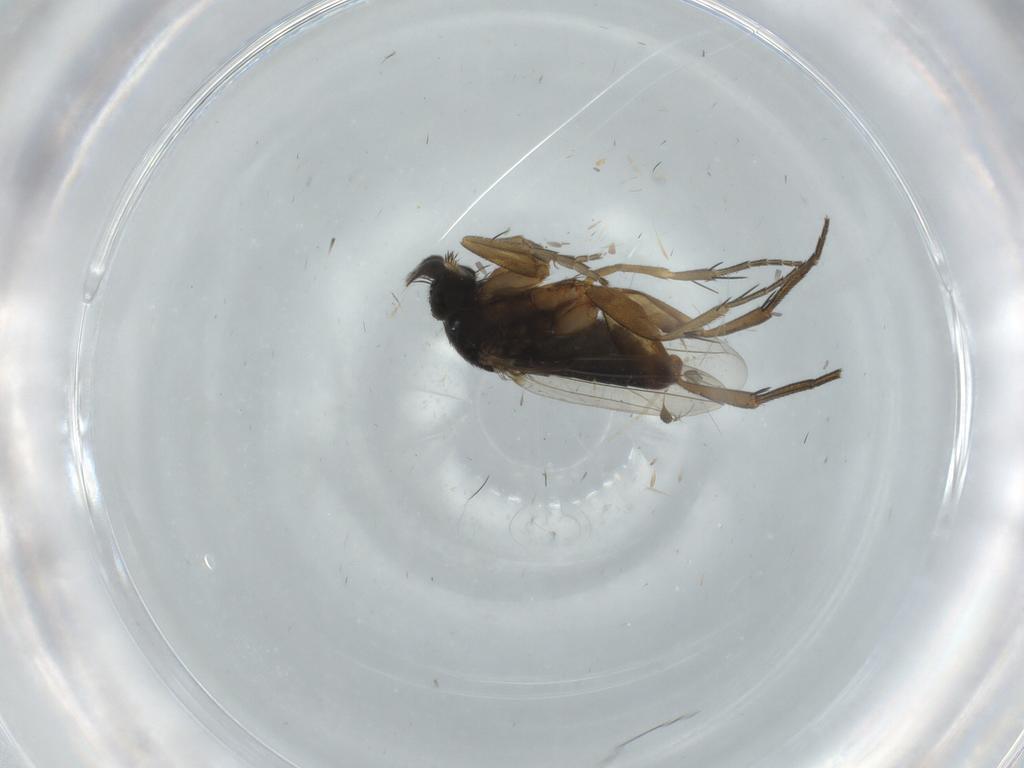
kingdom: Animalia
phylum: Arthropoda
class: Insecta
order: Diptera
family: Phoridae
